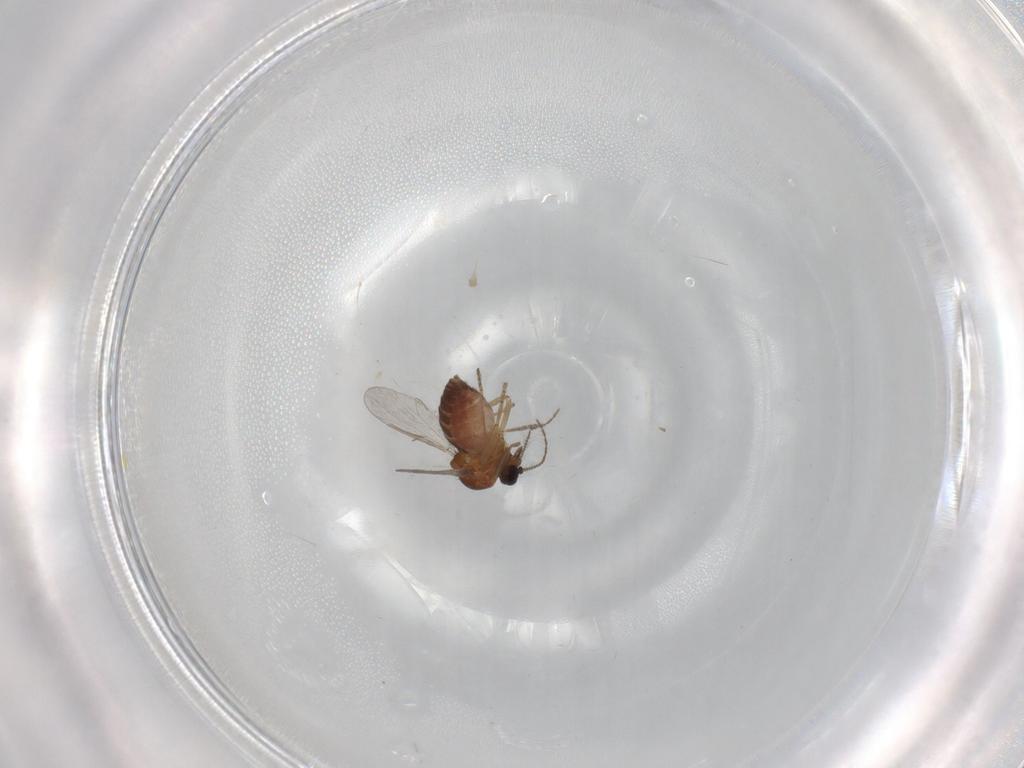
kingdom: Animalia
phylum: Arthropoda
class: Insecta
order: Diptera
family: Ceratopogonidae
